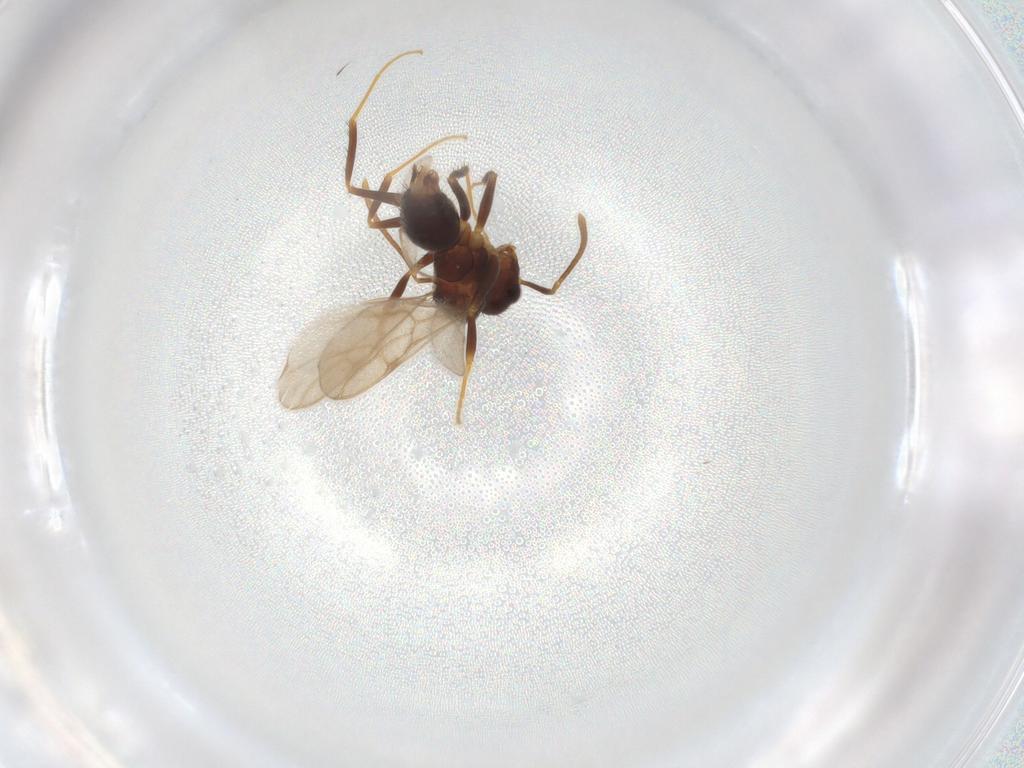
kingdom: Animalia
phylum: Arthropoda
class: Insecta
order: Hymenoptera
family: Formicidae
